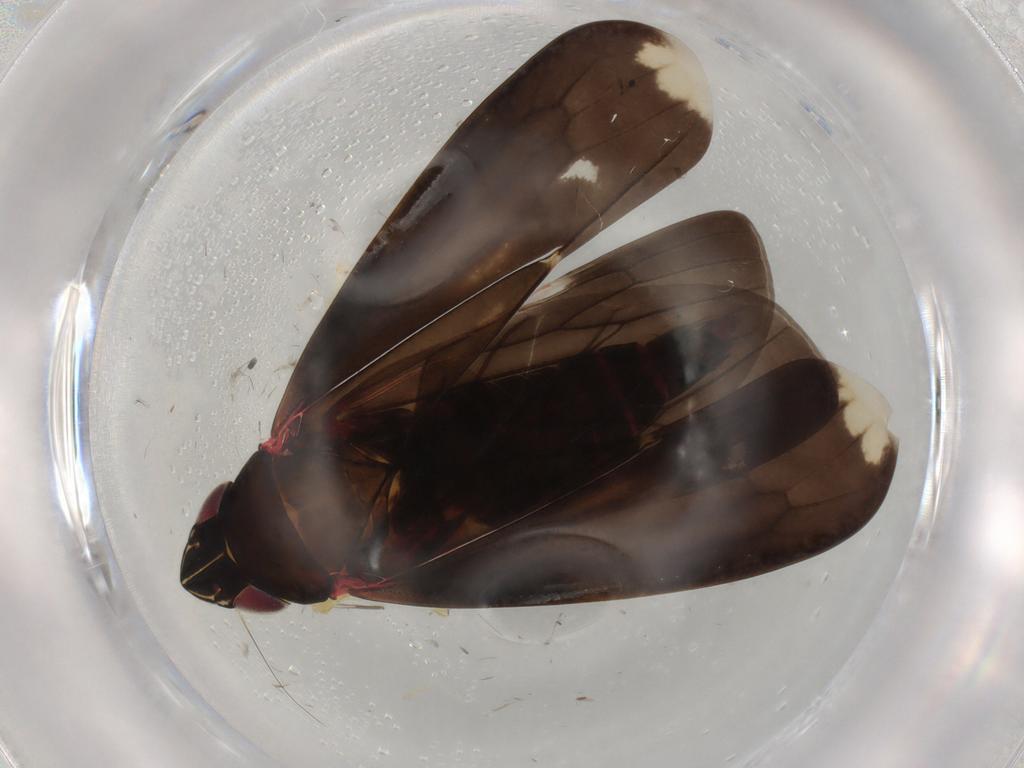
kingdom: Animalia
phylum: Arthropoda
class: Insecta
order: Hemiptera
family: Cicadellidae
